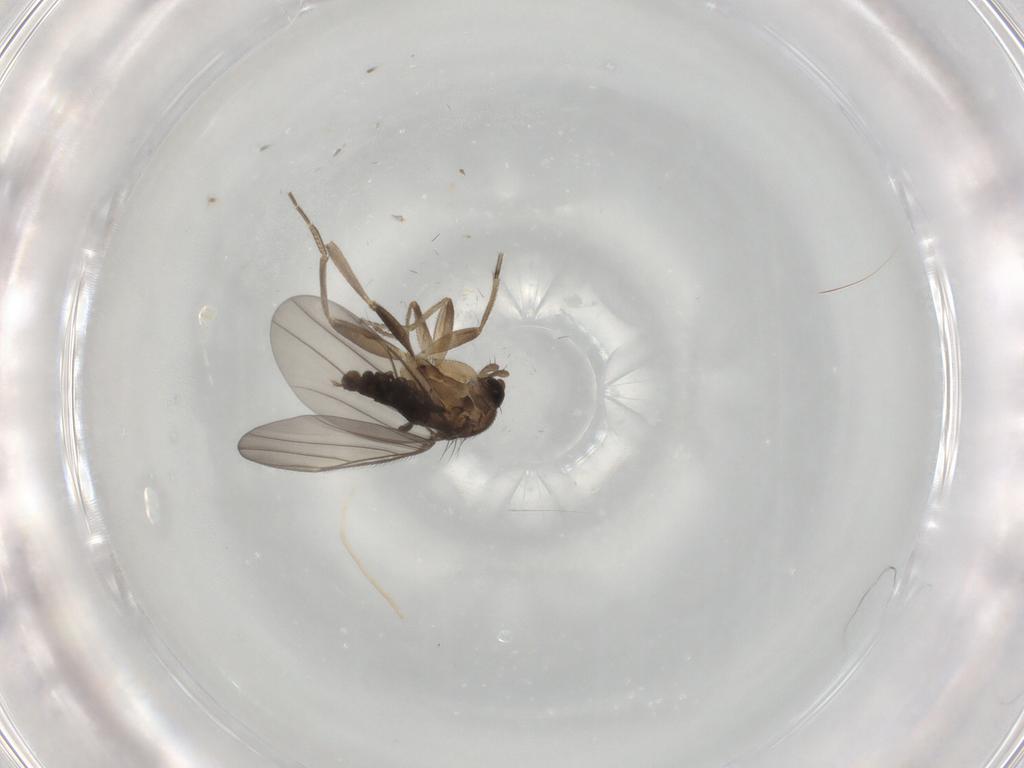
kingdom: Animalia
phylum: Arthropoda
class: Insecta
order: Diptera
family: Phoridae
